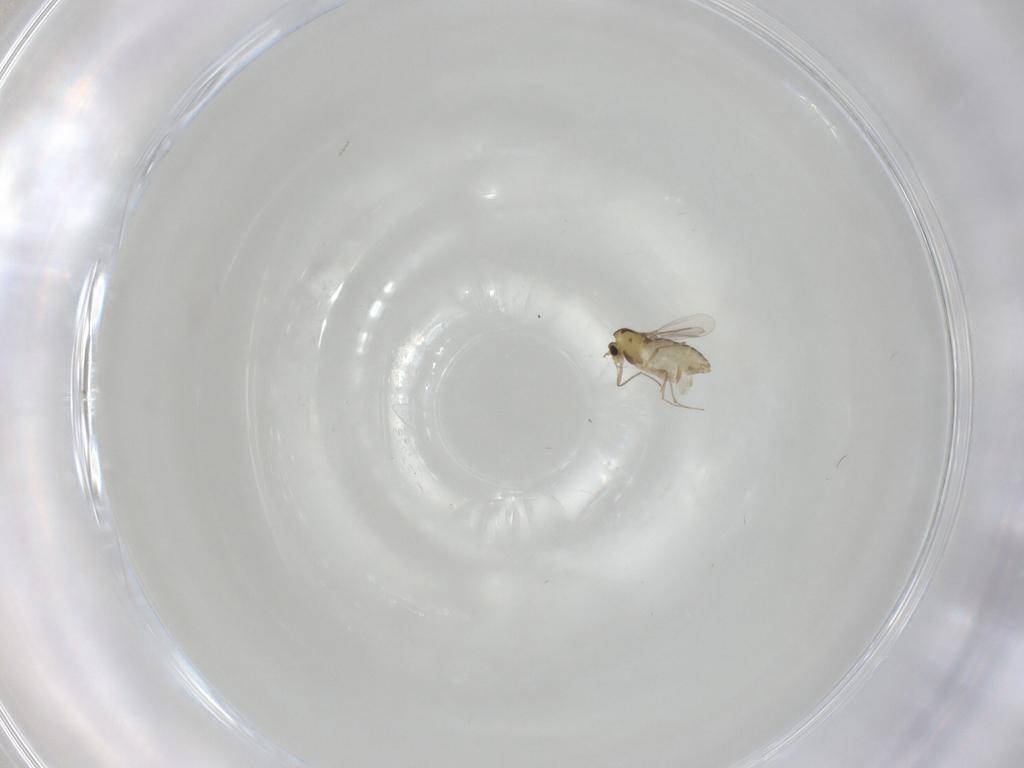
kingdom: Animalia
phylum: Arthropoda
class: Insecta
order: Diptera
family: Chironomidae
